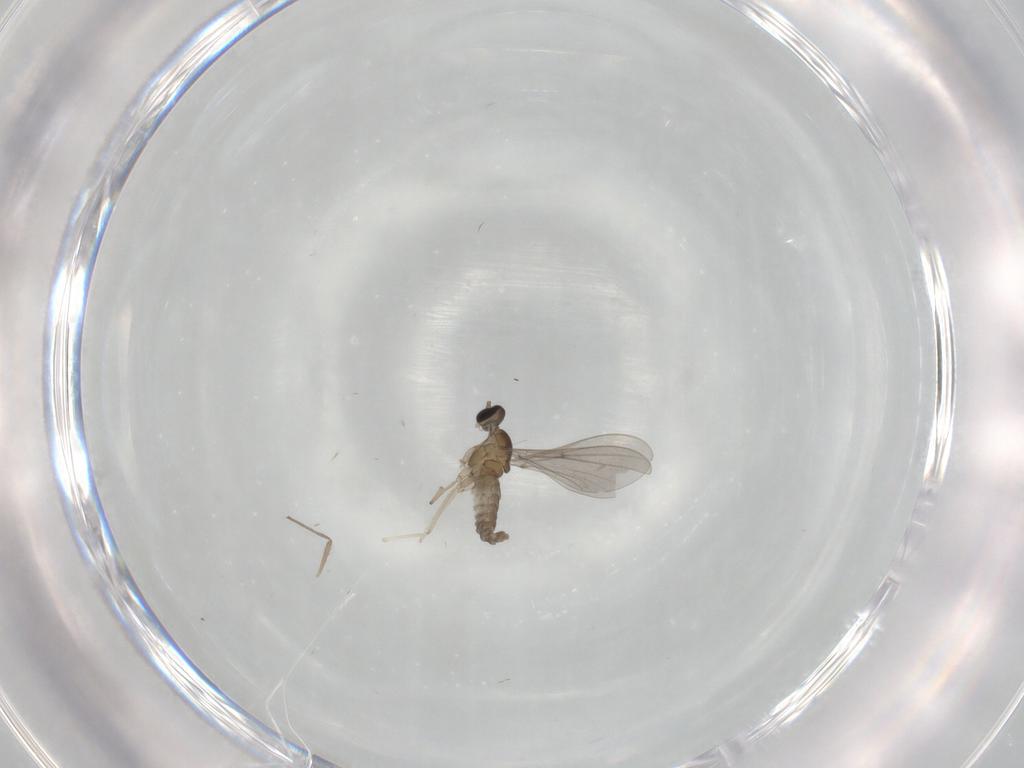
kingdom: Animalia
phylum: Arthropoda
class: Insecta
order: Diptera
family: Cecidomyiidae
